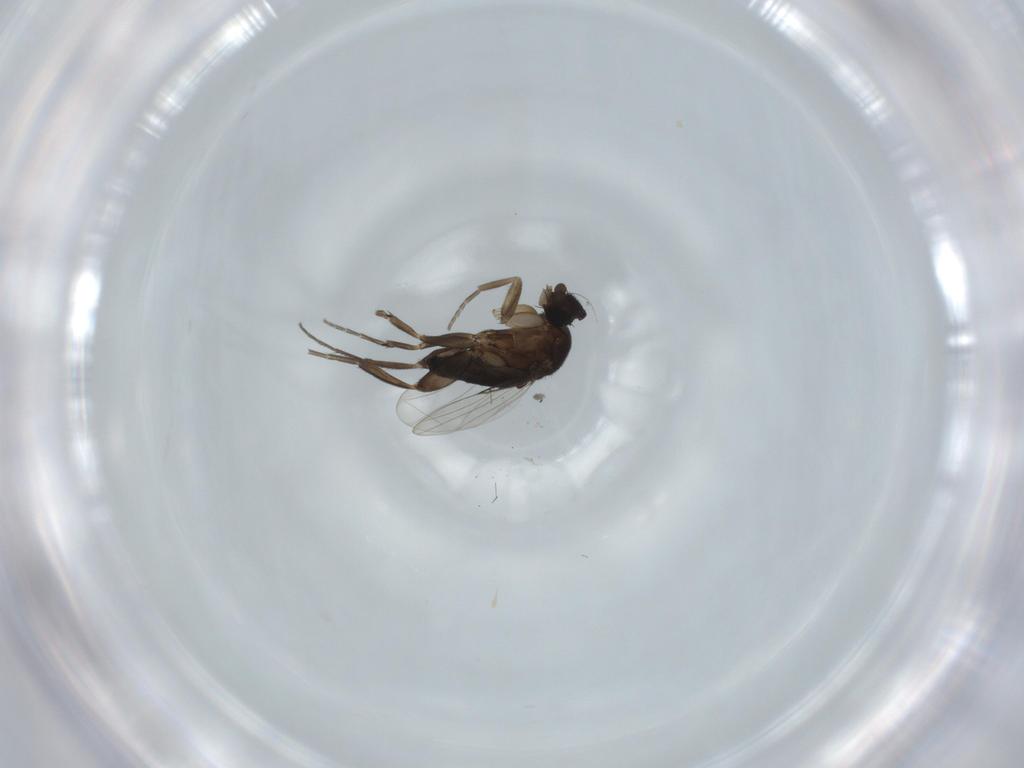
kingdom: Animalia
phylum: Arthropoda
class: Insecta
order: Diptera
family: Phoridae
